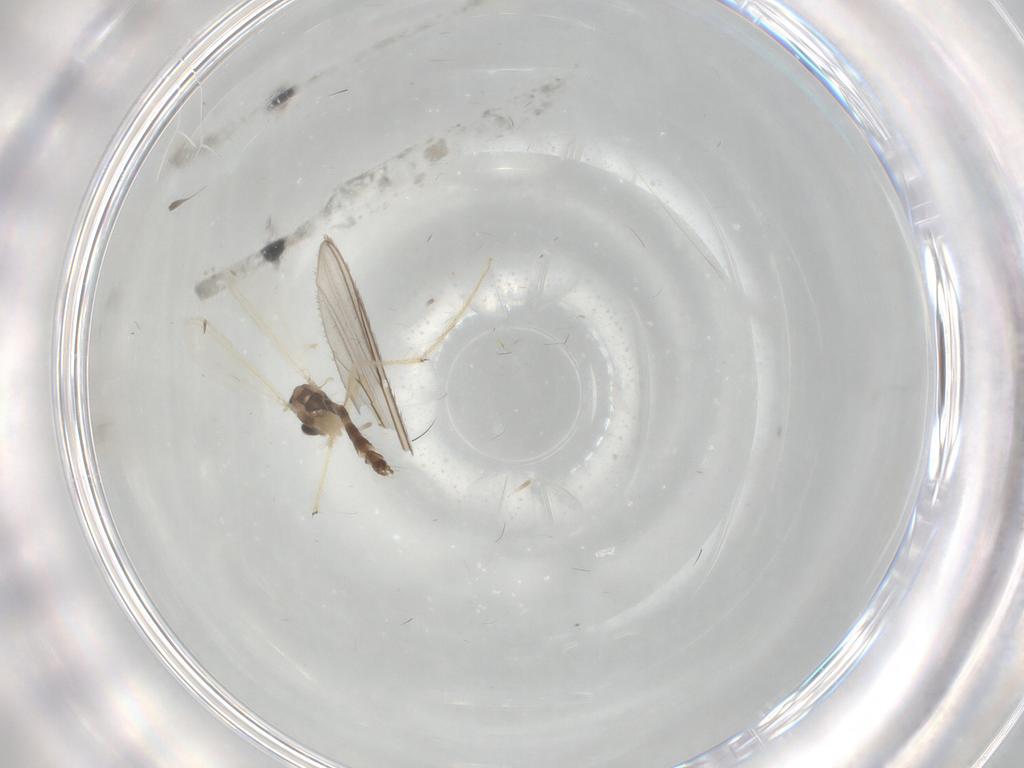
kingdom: Animalia
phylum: Arthropoda
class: Insecta
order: Diptera
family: Chironomidae
